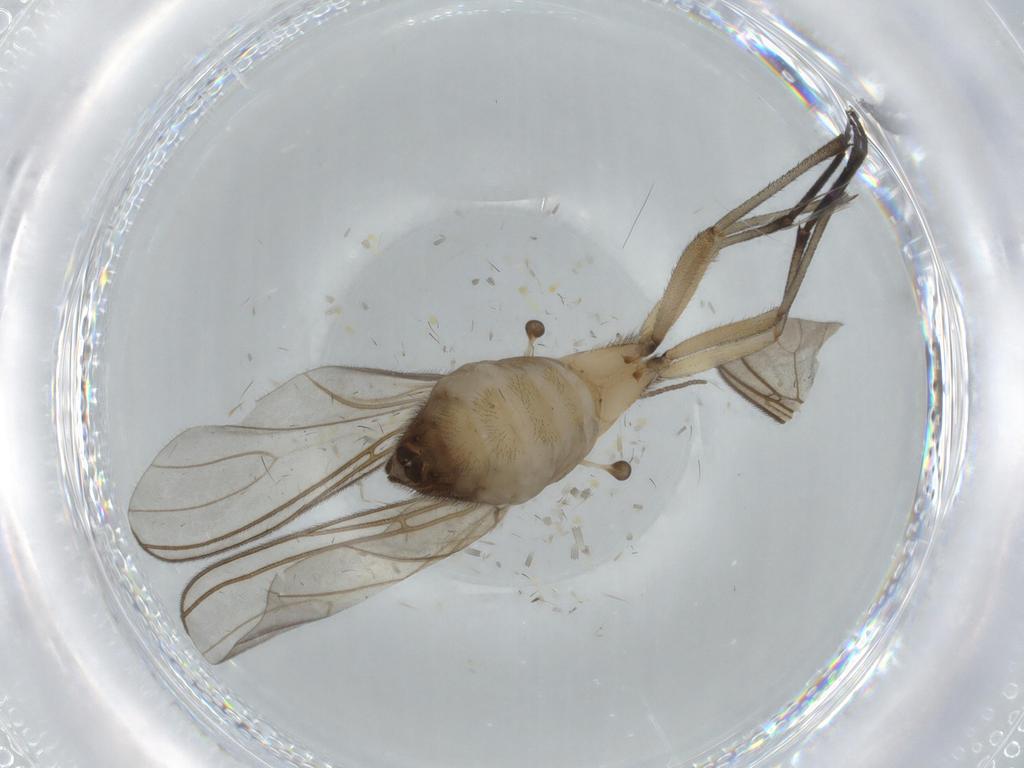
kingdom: Animalia
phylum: Arthropoda
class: Insecta
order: Diptera
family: Sciaridae
